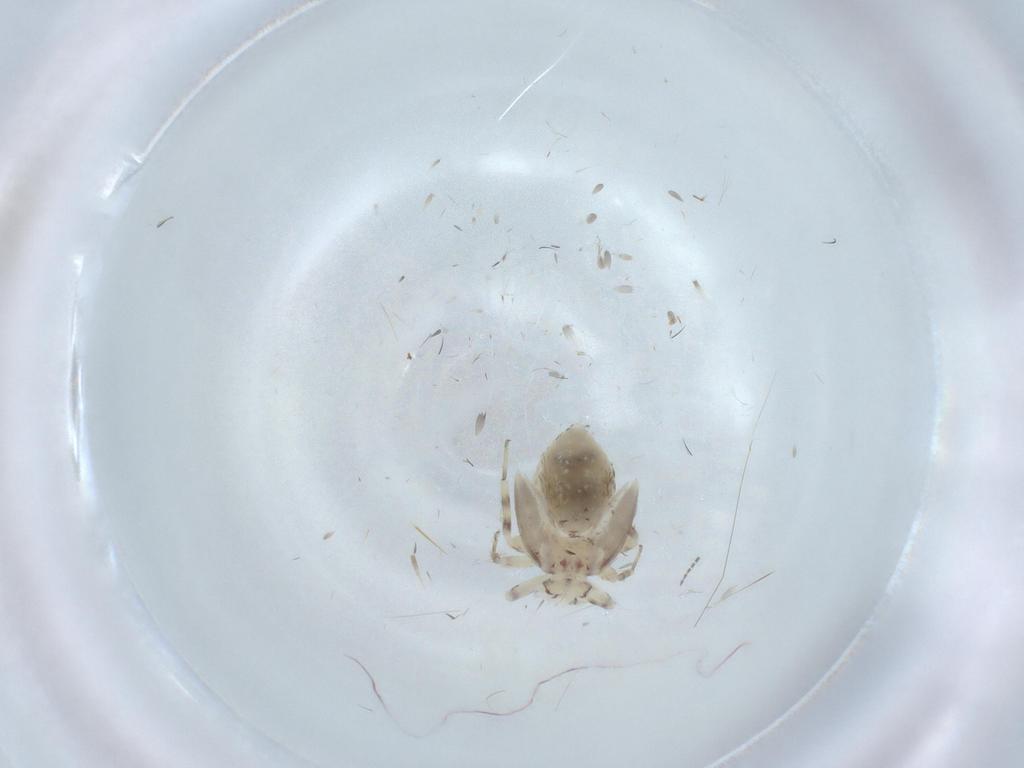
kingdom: Animalia
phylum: Arthropoda
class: Insecta
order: Psocodea
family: Lepidopsocidae
